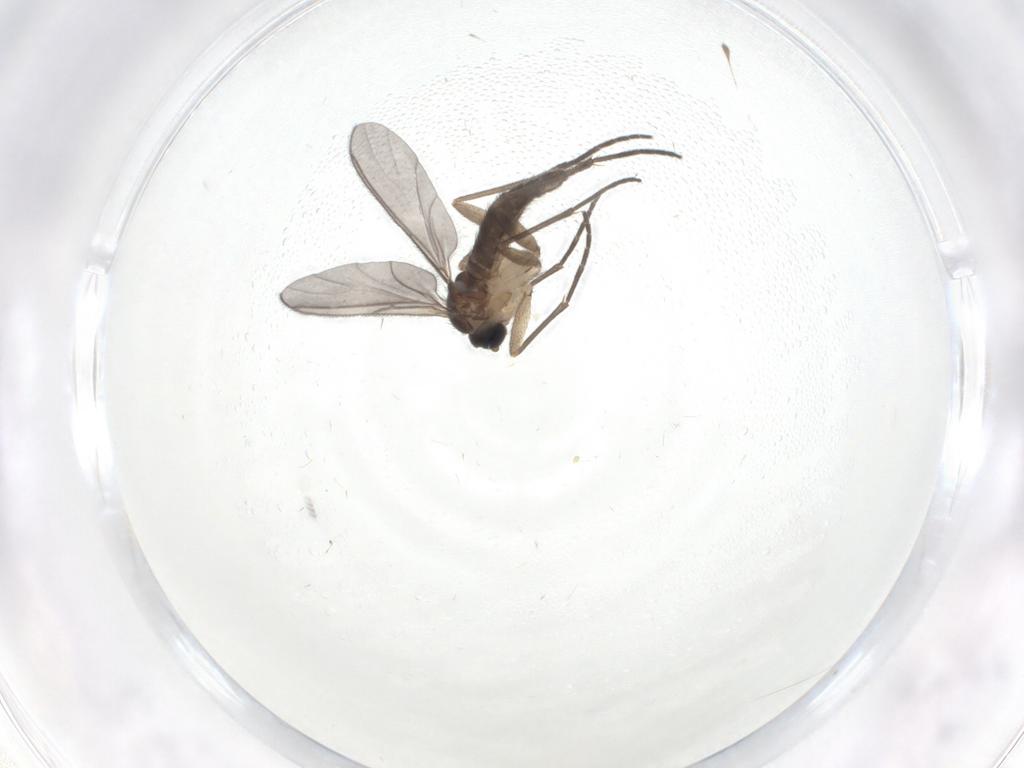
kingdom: Animalia
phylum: Arthropoda
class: Insecta
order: Diptera
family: Sciaridae
